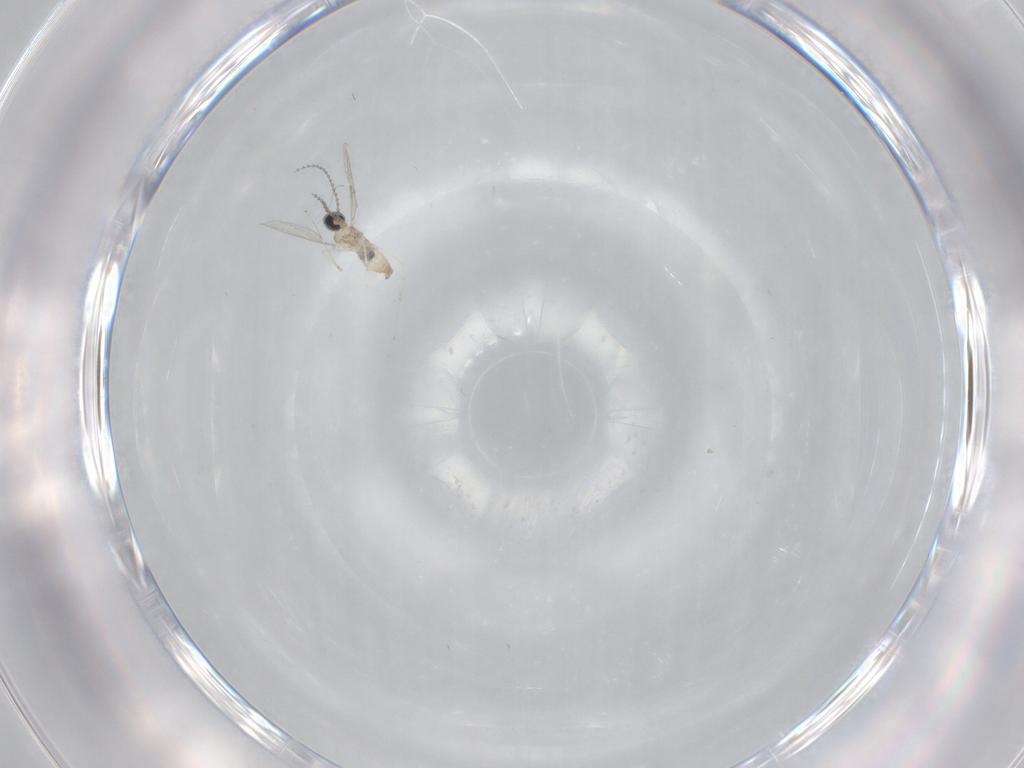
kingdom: Animalia
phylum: Arthropoda
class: Insecta
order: Diptera
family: Cecidomyiidae
